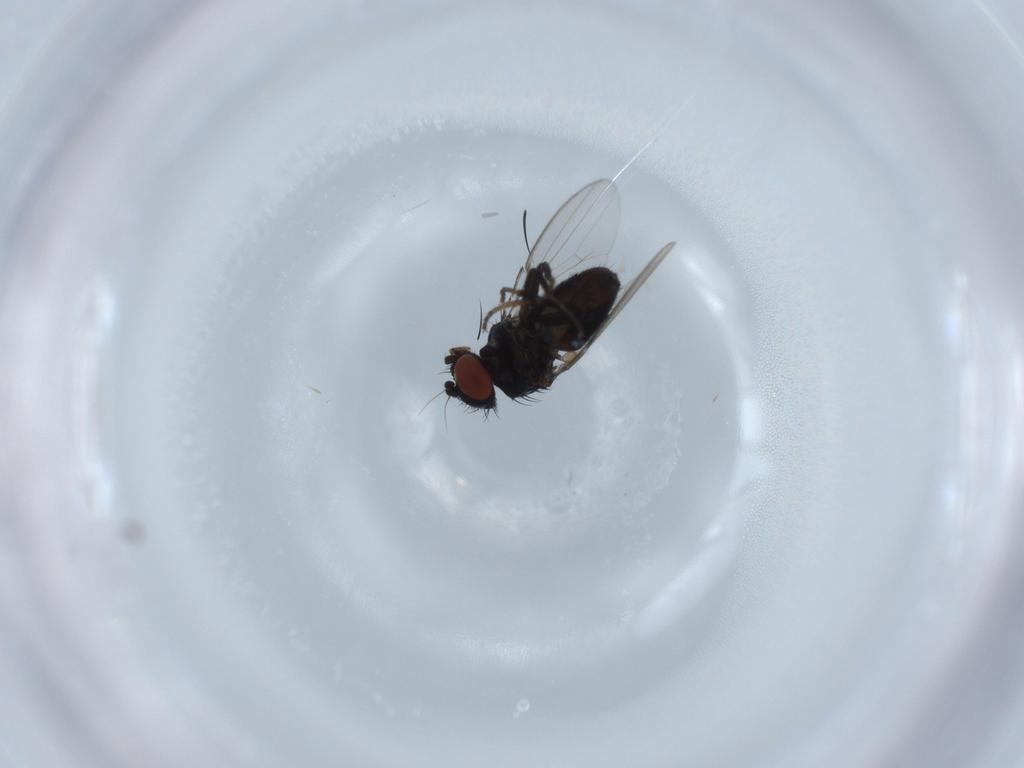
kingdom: Animalia
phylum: Arthropoda
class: Insecta
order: Diptera
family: Milichiidae
